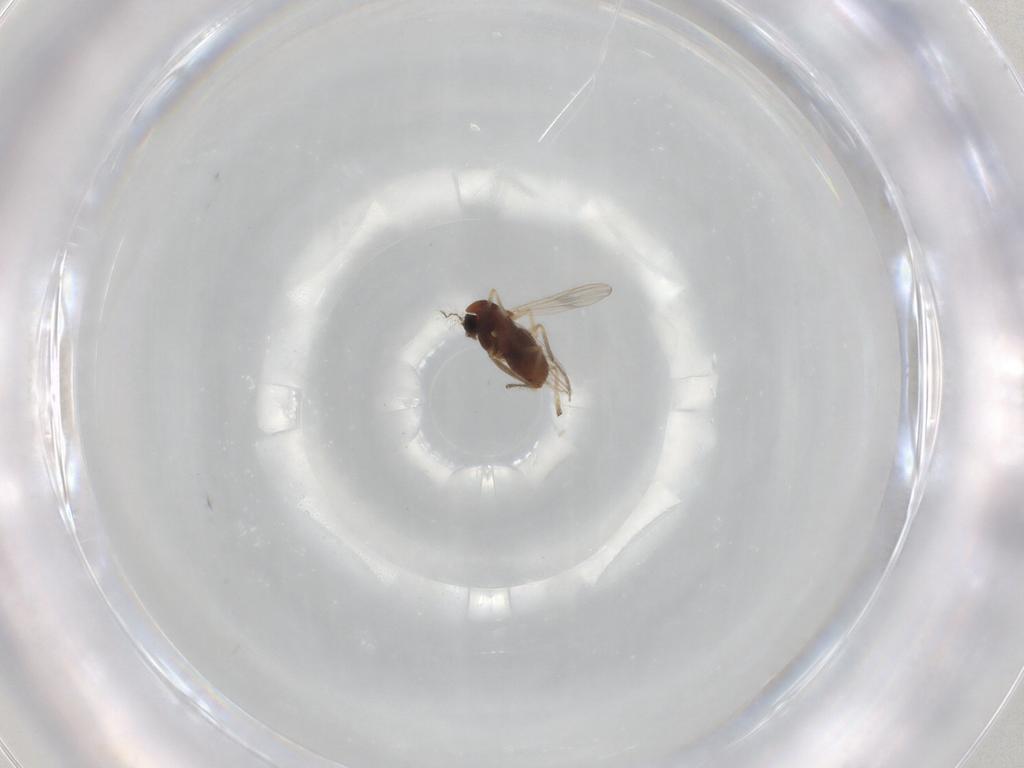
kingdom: Animalia
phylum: Arthropoda
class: Insecta
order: Diptera
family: Chironomidae
